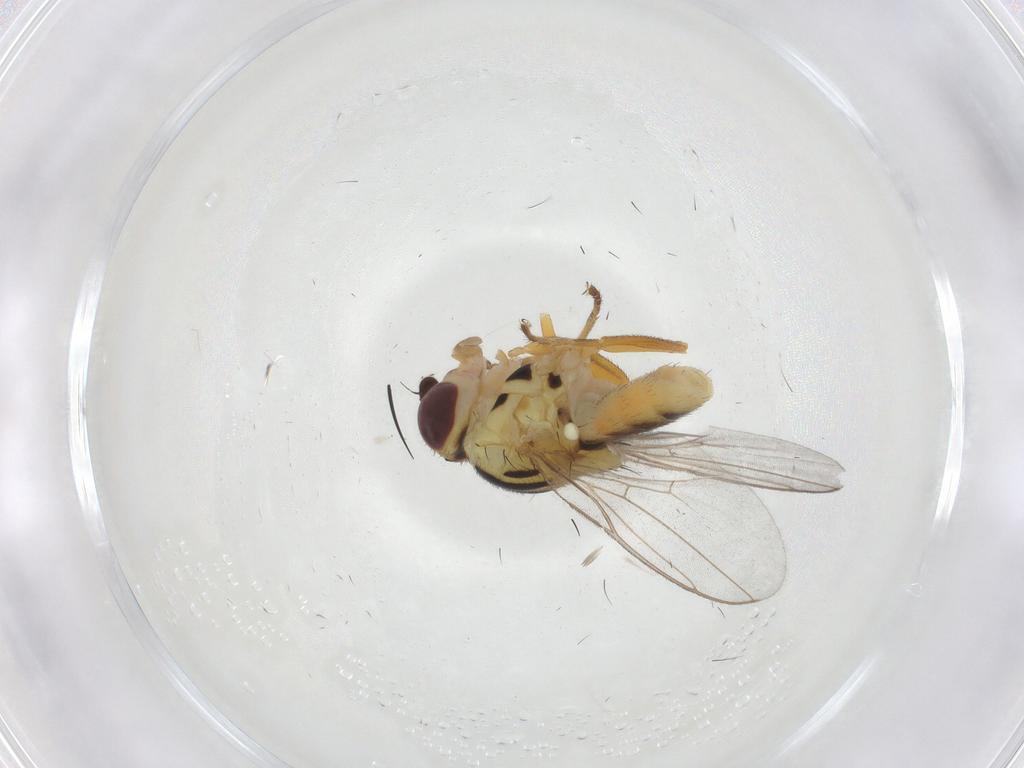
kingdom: Animalia
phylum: Arthropoda
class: Insecta
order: Diptera
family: Chloropidae
